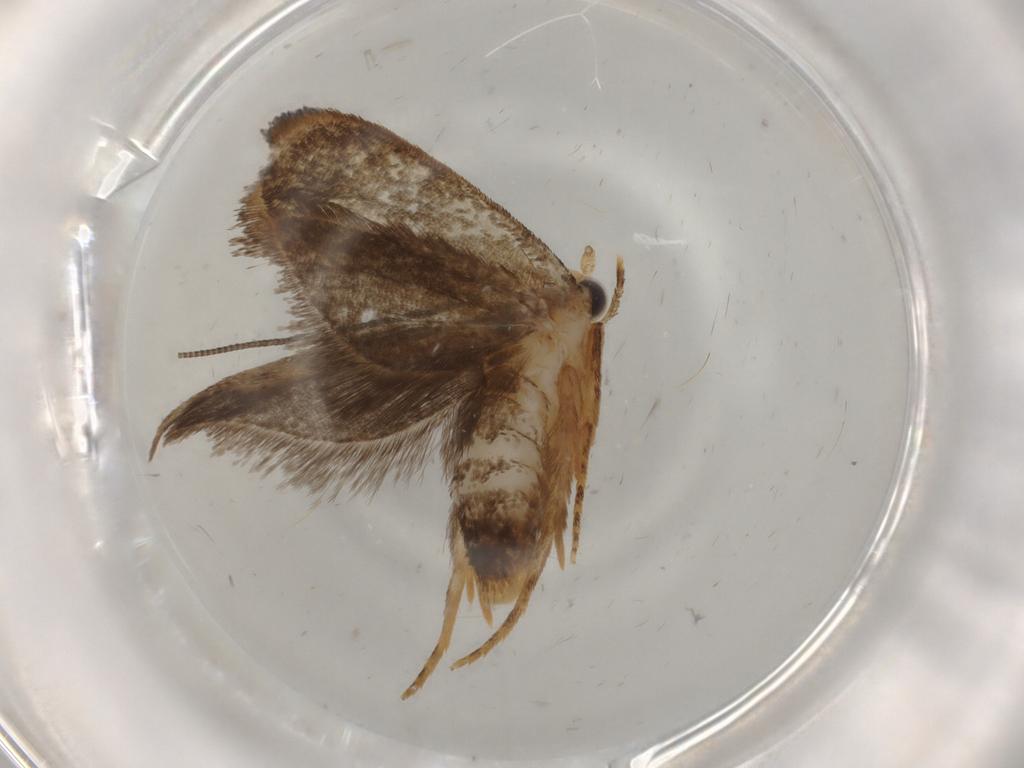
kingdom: Animalia
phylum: Arthropoda
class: Insecta
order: Lepidoptera
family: Tineidae
